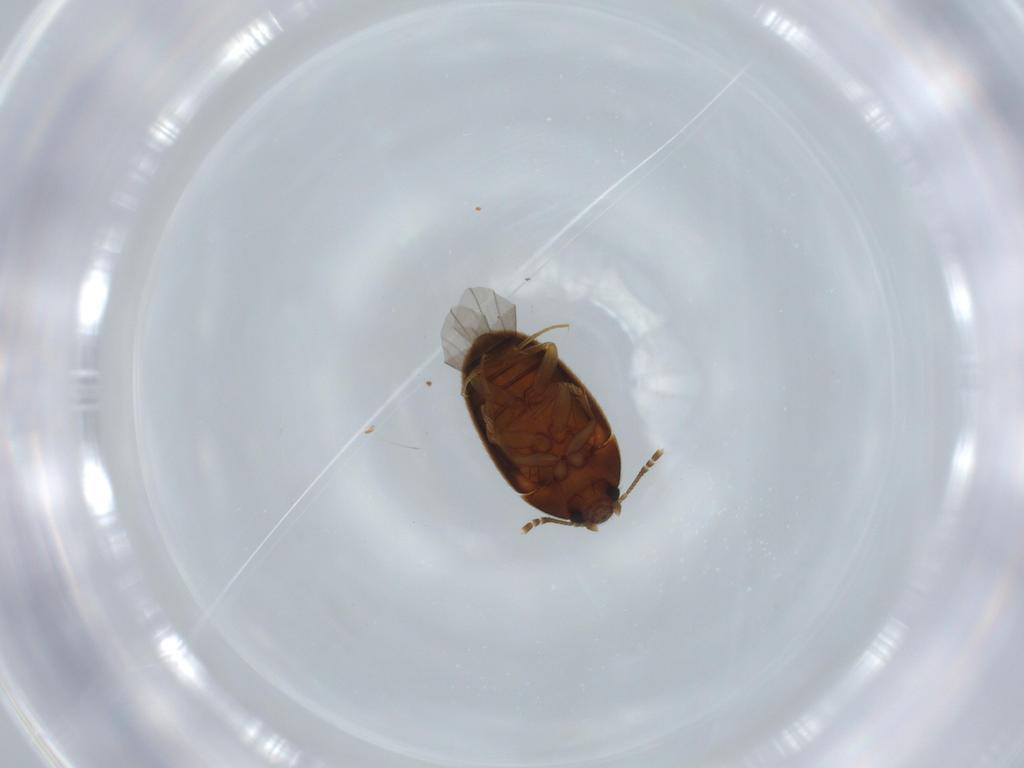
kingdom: Animalia
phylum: Arthropoda
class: Insecta
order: Coleoptera
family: Mycetophagidae
